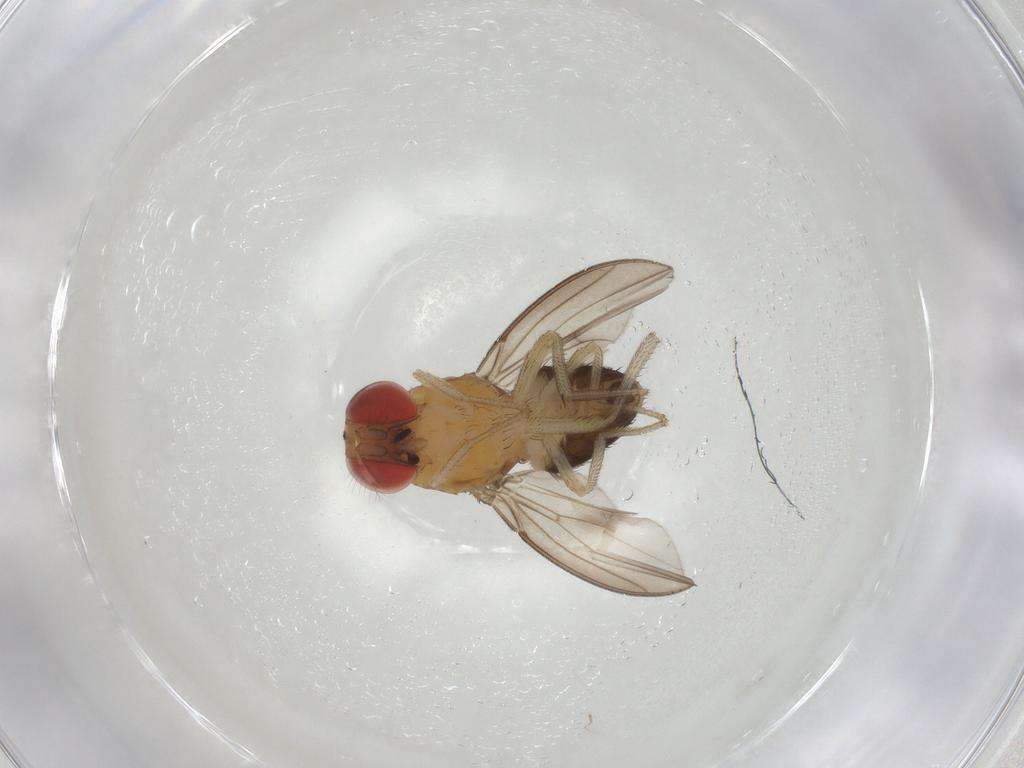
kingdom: Animalia
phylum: Arthropoda
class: Insecta
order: Diptera
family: Drosophilidae
